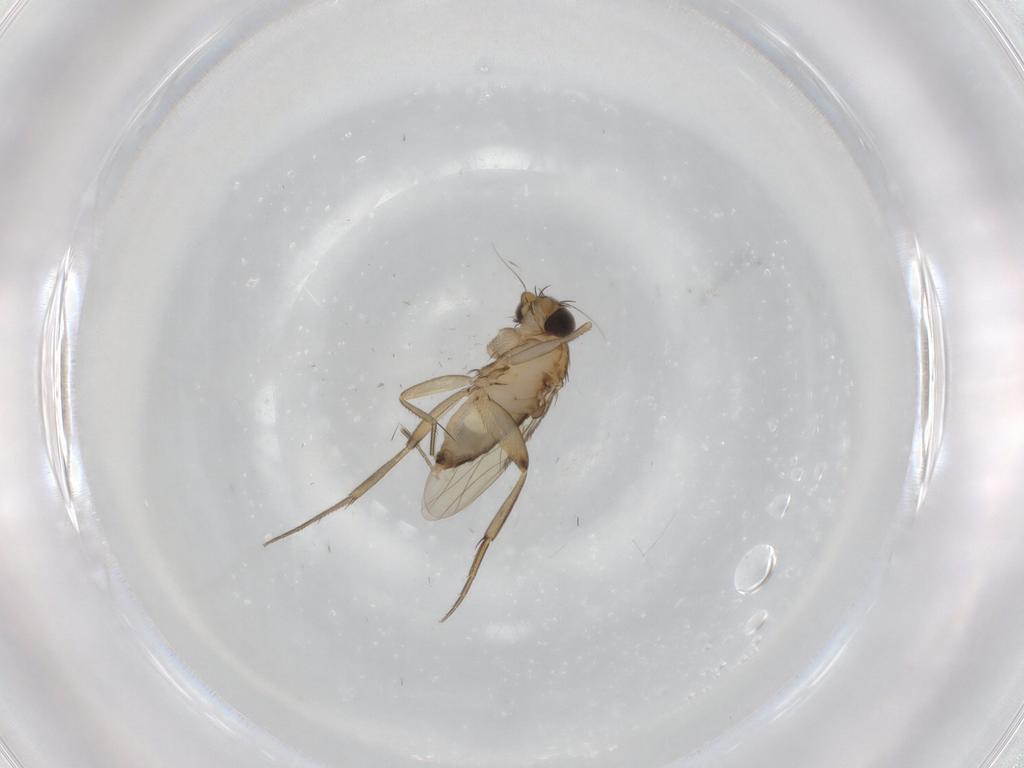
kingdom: Animalia
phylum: Arthropoda
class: Insecta
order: Diptera
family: Phoridae
